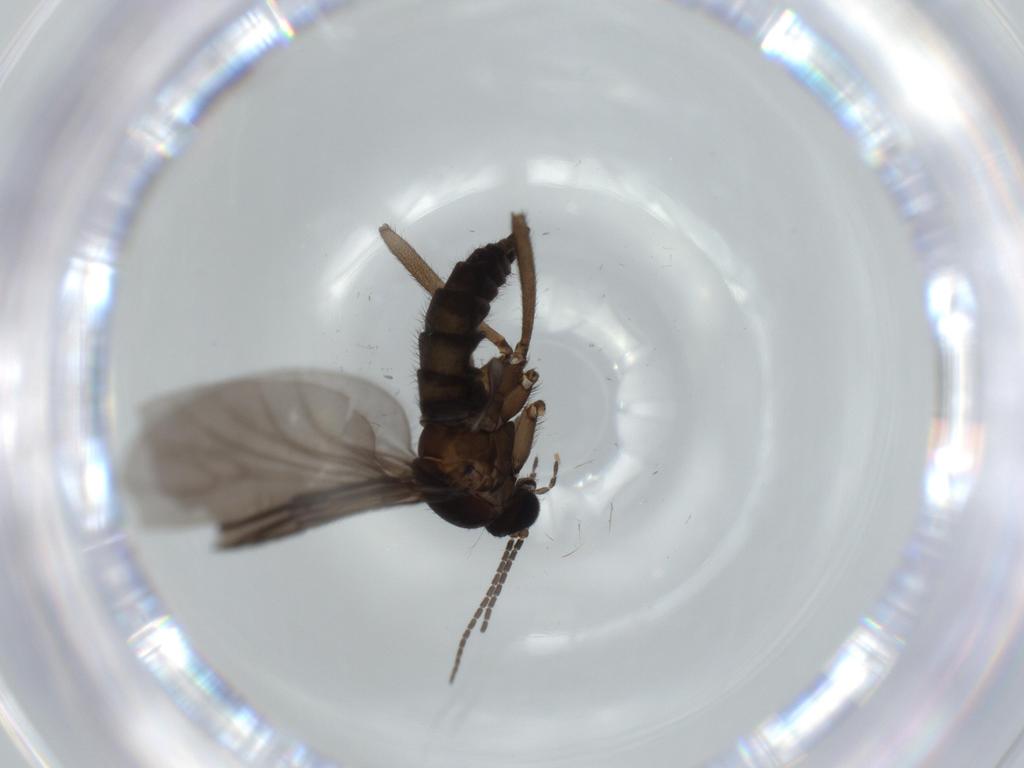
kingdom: Animalia
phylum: Arthropoda
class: Insecta
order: Diptera
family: Sciaridae
